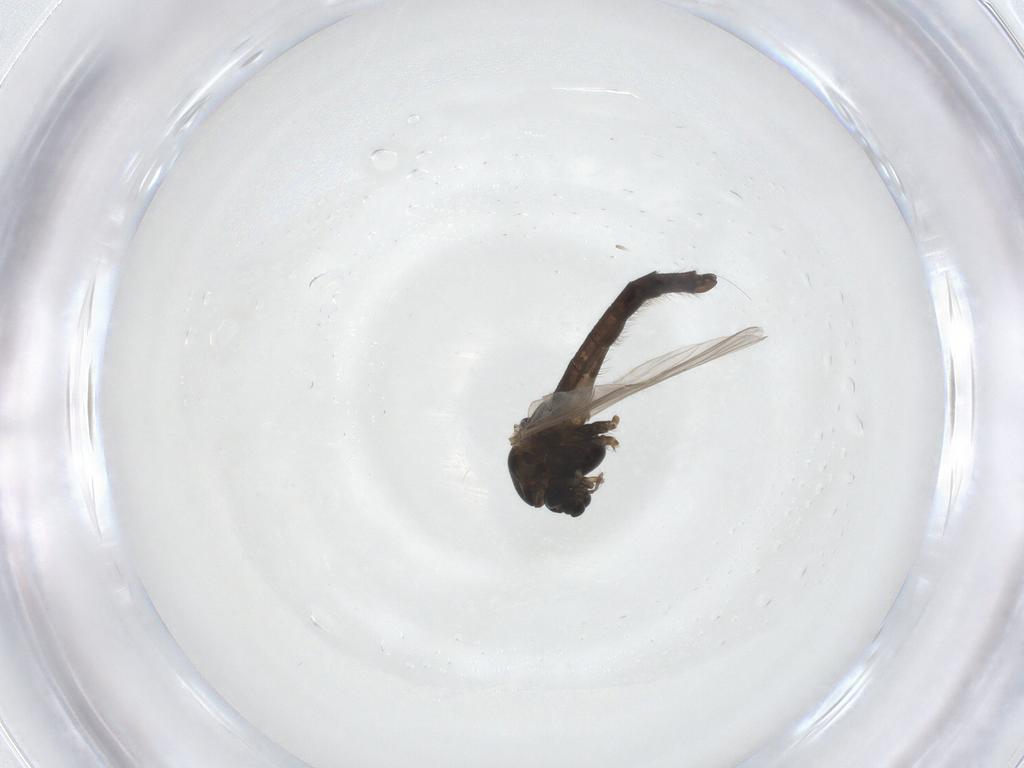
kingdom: Animalia
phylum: Arthropoda
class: Insecta
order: Diptera
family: Chironomidae
